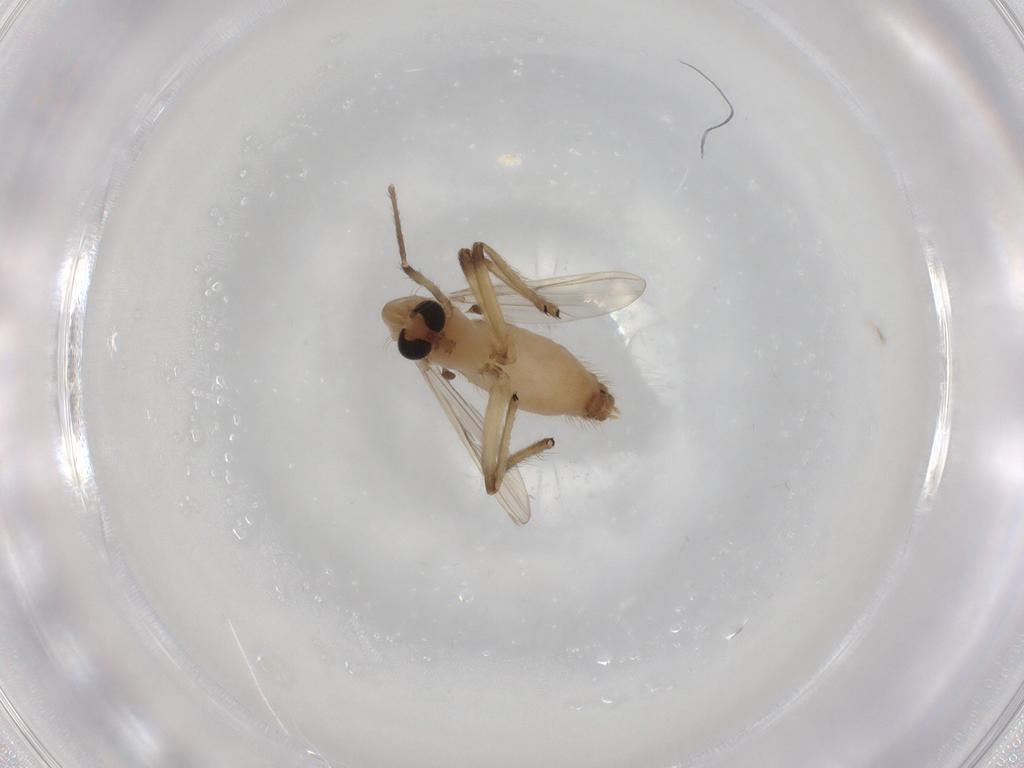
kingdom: Animalia
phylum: Arthropoda
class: Insecta
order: Diptera
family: Chironomidae
